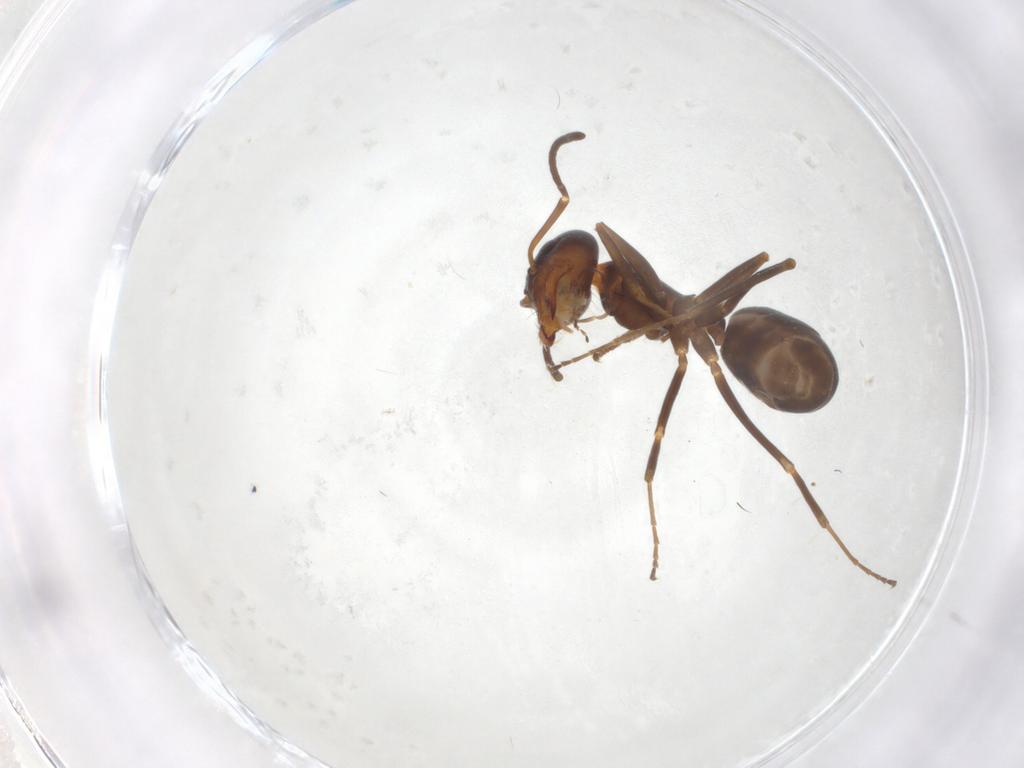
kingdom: Animalia
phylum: Arthropoda
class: Insecta
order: Hymenoptera
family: Formicidae
